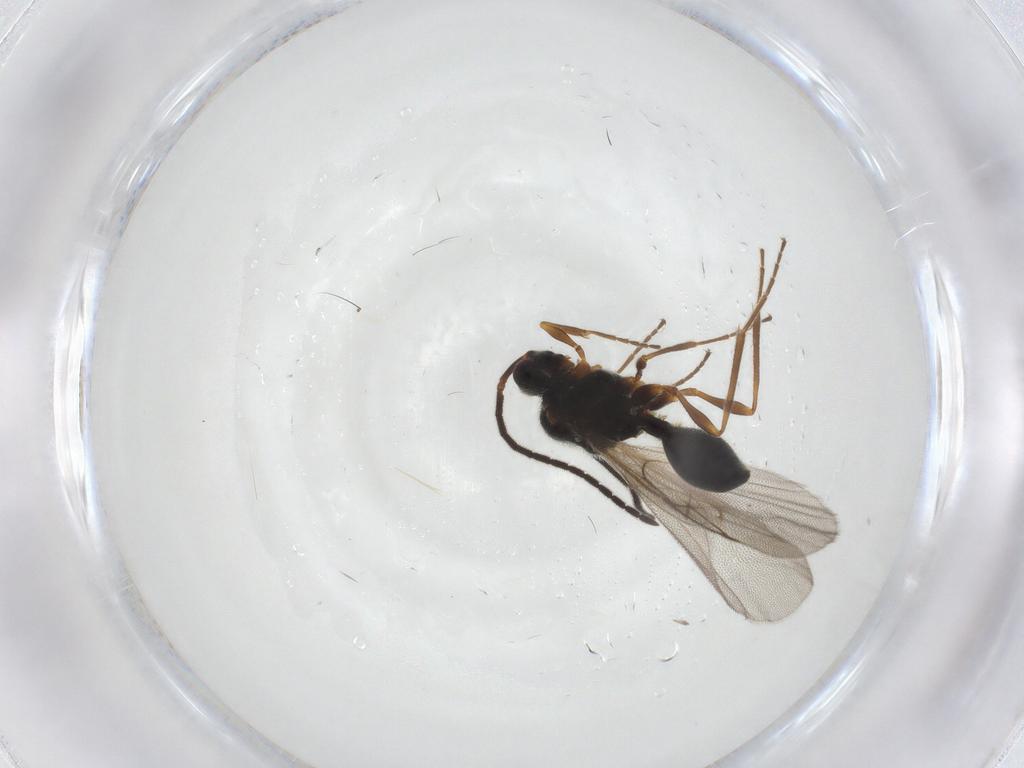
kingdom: Animalia
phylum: Arthropoda
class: Insecta
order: Hymenoptera
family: Diapriidae
